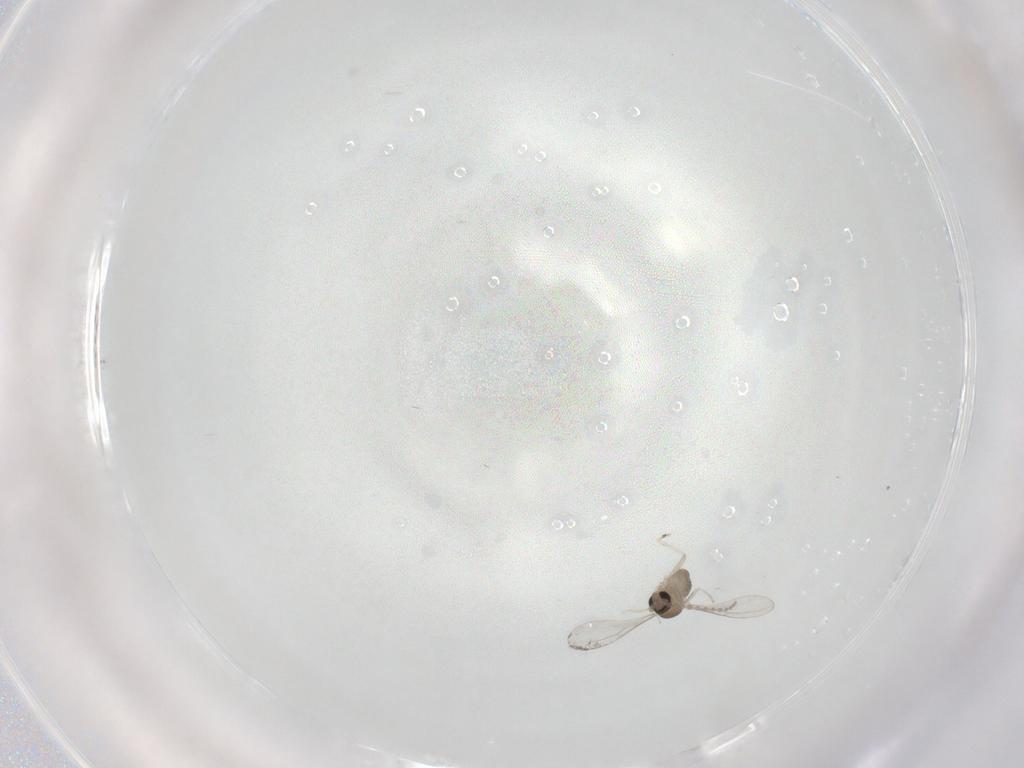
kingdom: Animalia
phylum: Arthropoda
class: Insecta
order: Diptera
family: Cecidomyiidae
